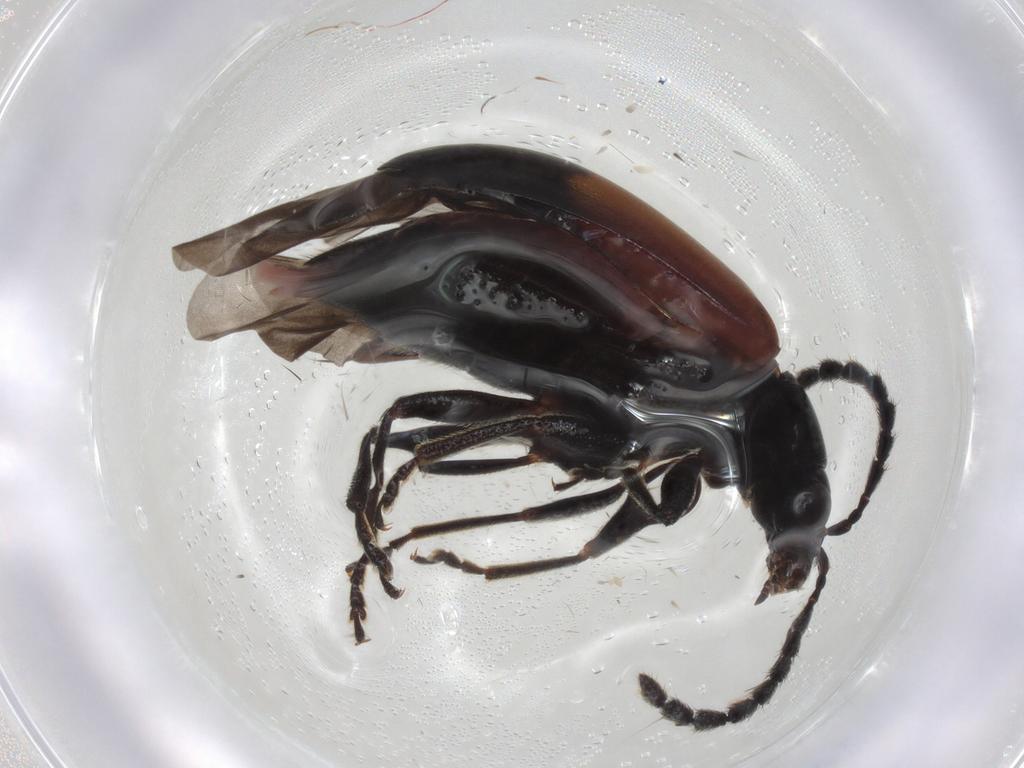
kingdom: Animalia
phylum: Arthropoda
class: Insecta
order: Coleoptera
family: Chrysomelidae
